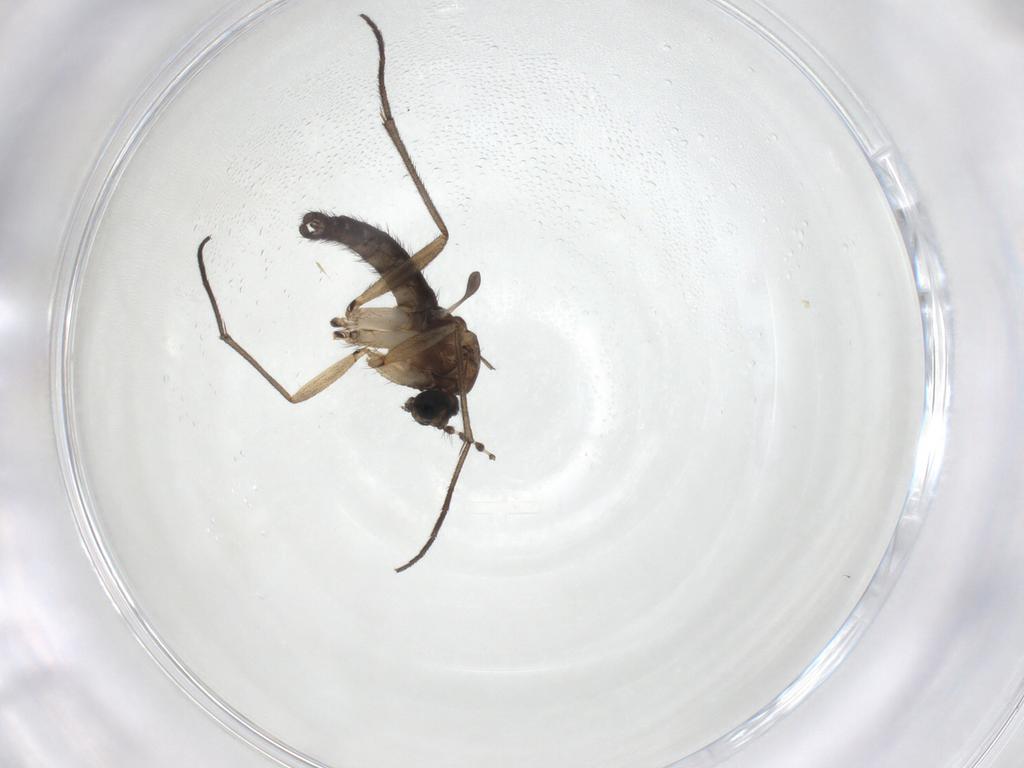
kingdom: Animalia
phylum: Arthropoda
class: Insecta
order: Diptera
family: Sciaridae
